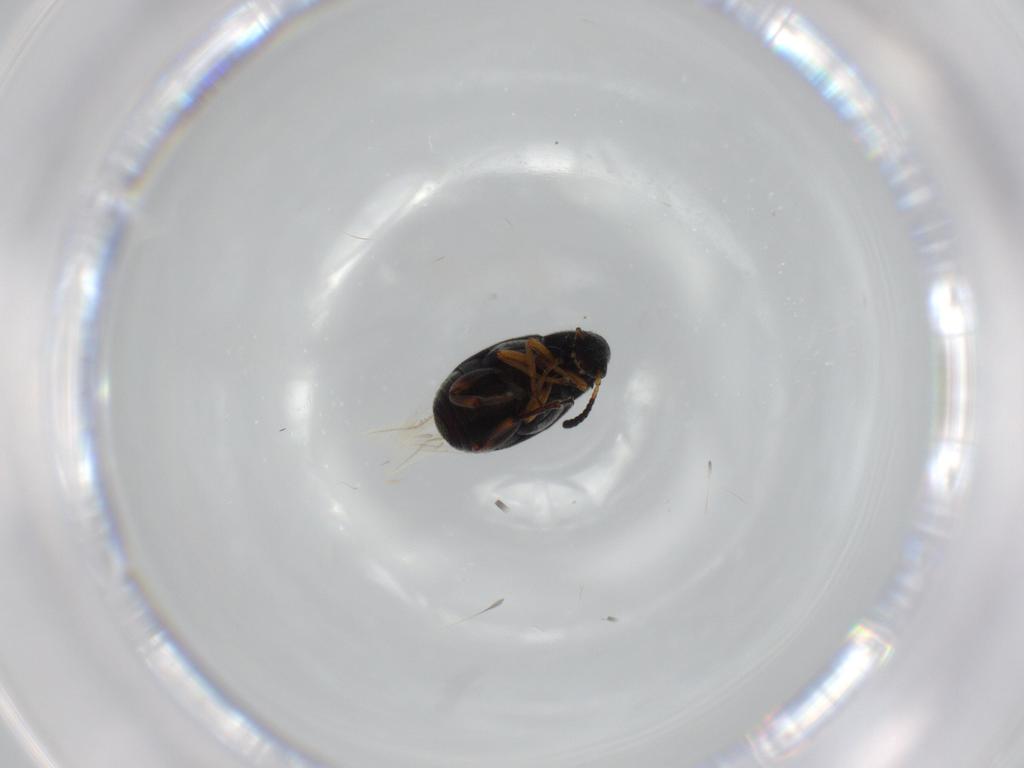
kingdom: Animalia
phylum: Arthropoda
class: Insecta
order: Coleoptera
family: Chrysomelidae
